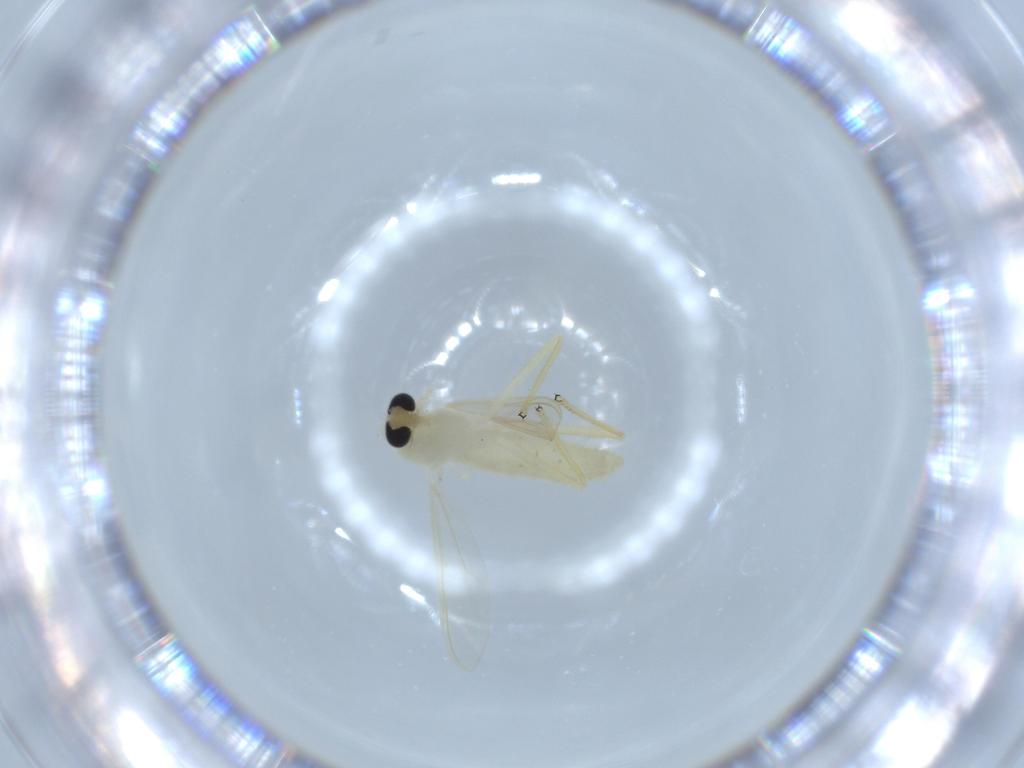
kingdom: Animalia
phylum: Arthropoda
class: Insecta
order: Diptera
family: Chironomidae
